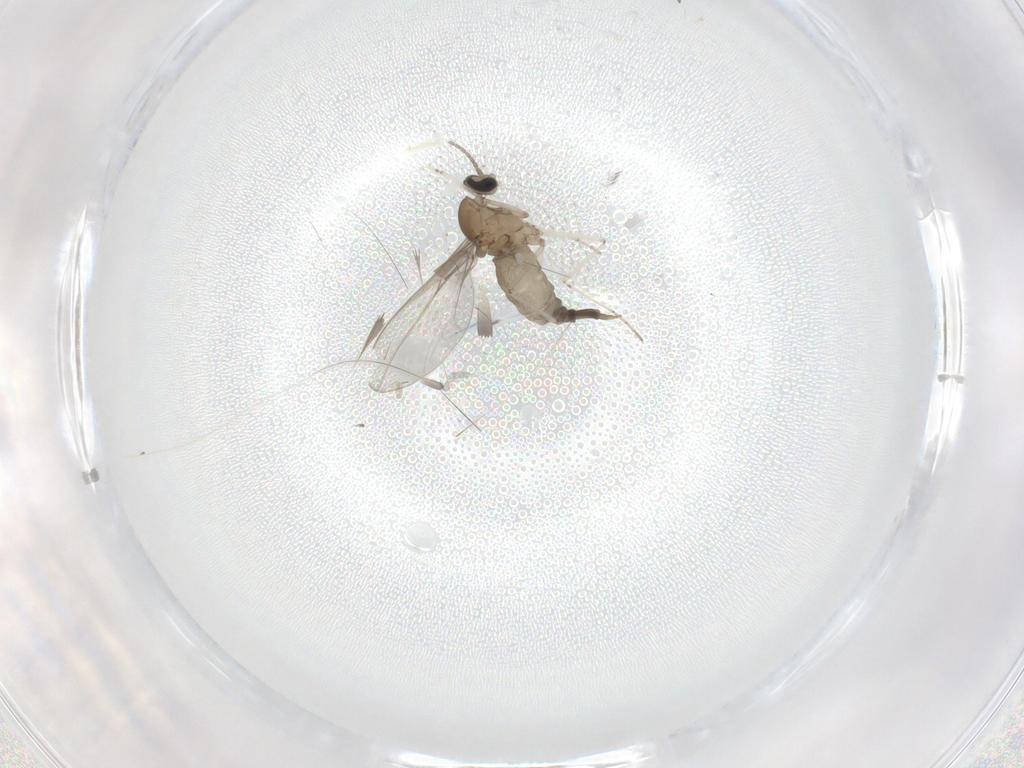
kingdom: Animalia
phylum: Arthropoda
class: Insecta
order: Diptera
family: Cecidomyiidae
